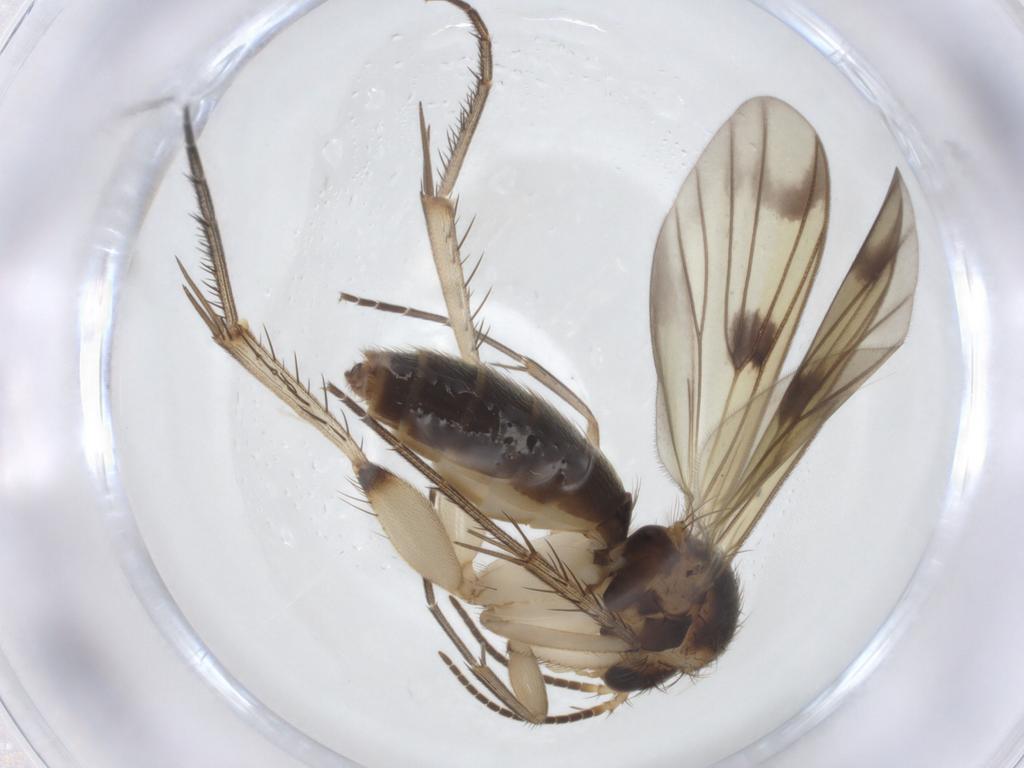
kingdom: Animalia
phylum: Arthropoda
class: Insecta
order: Diptera
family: Mycetophilidae
